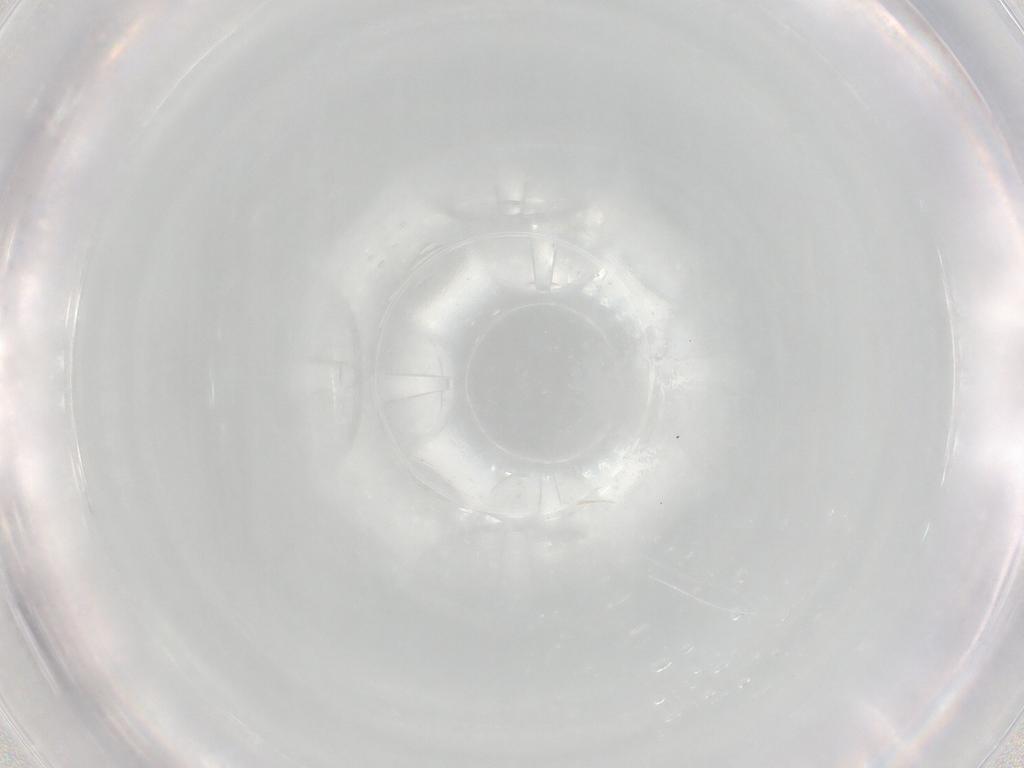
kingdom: Animalia
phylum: Arthropoda
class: Insecta
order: Diptera
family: Cecidomyiidae
